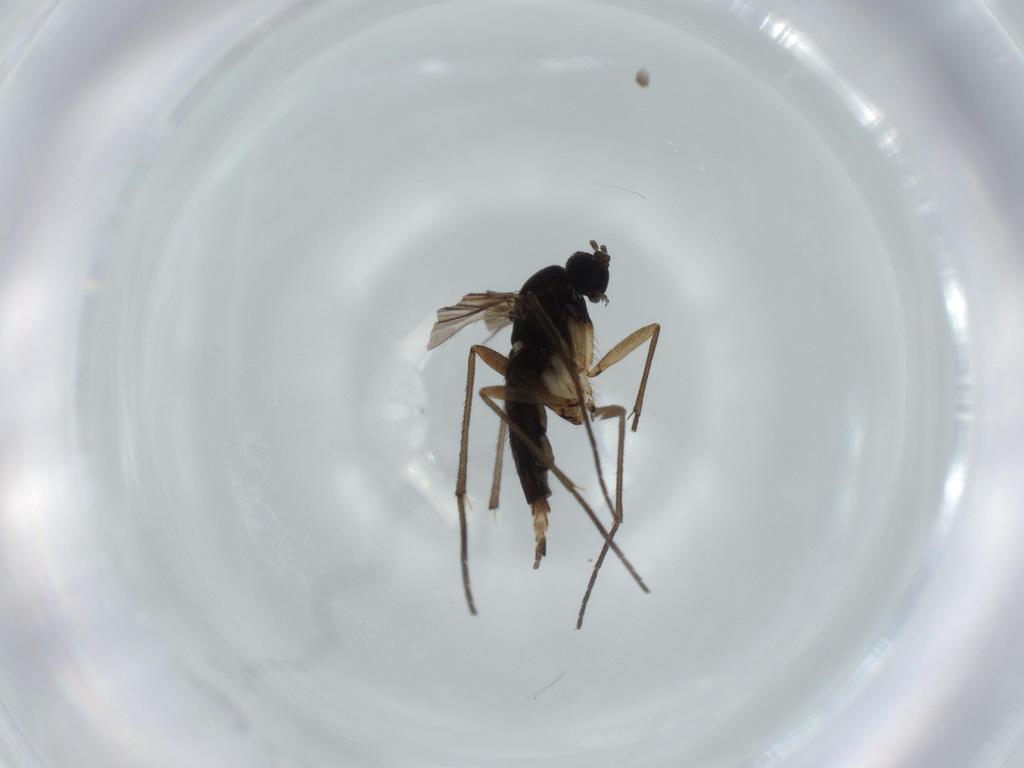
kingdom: Animalia
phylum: Arthropoda
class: Insecta
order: Diptera
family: Sciaridae
